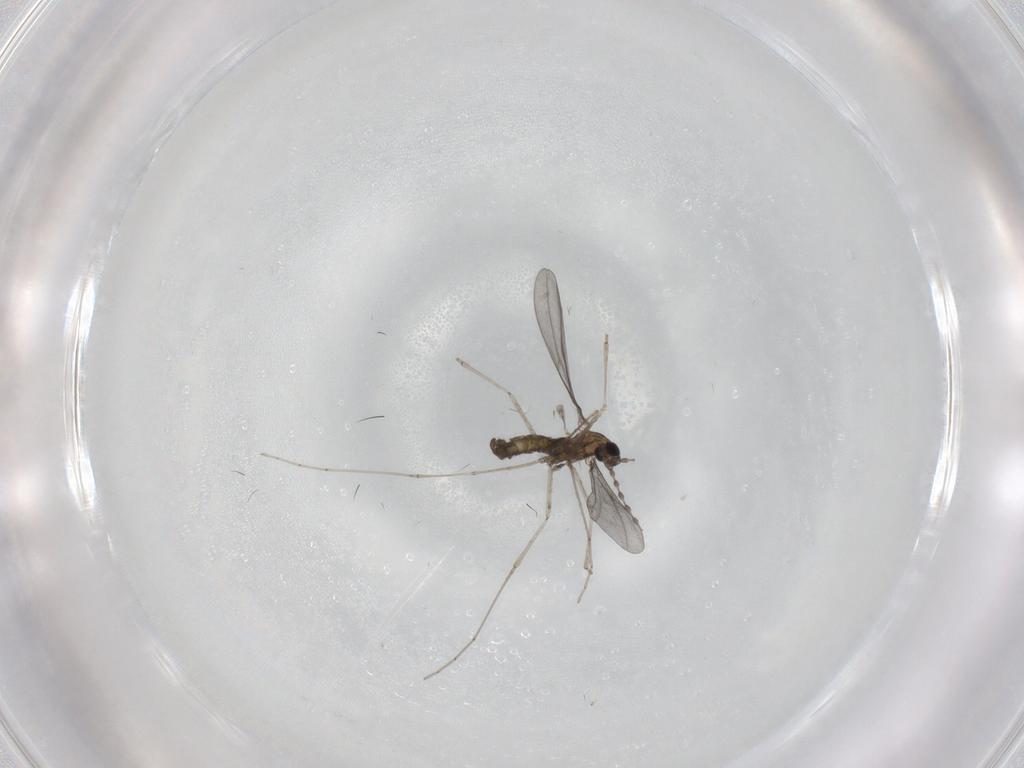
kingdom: Animalia
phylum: Arthropoda
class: Insecta
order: Diptera
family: Cecidomyiidae
